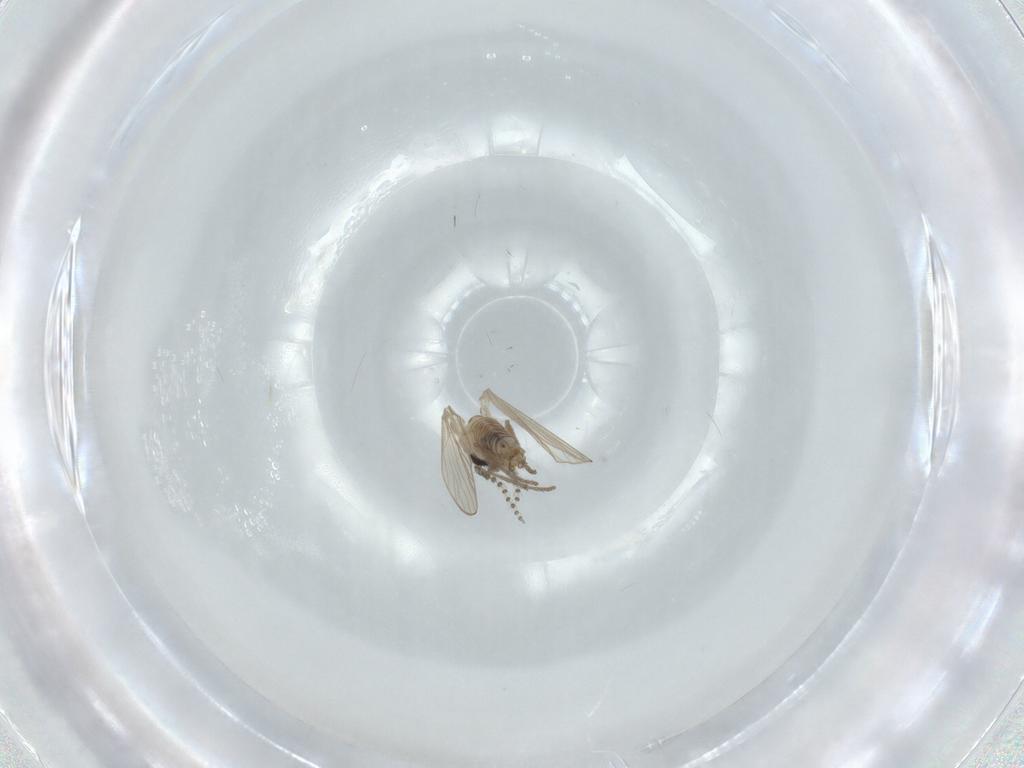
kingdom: Animalia
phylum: Arthropoda
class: Insecta
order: Diptera
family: Psychodidae
